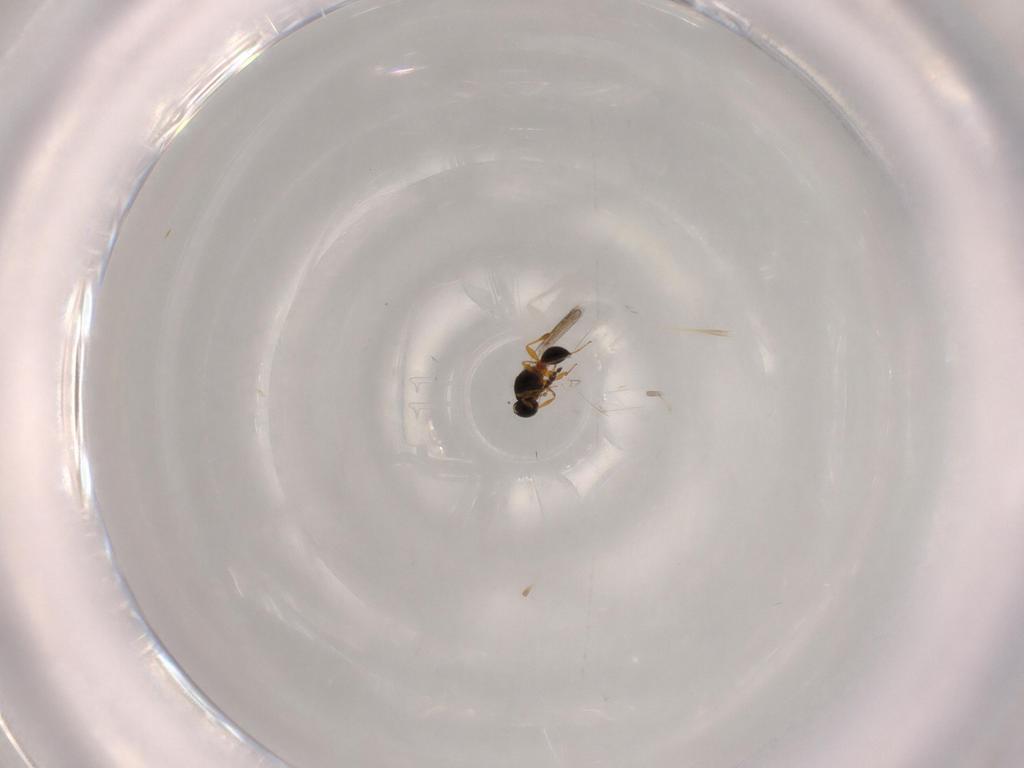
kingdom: Animalia
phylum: Arthropoda
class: Insecta
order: Hymenoptera
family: Platygastridae
